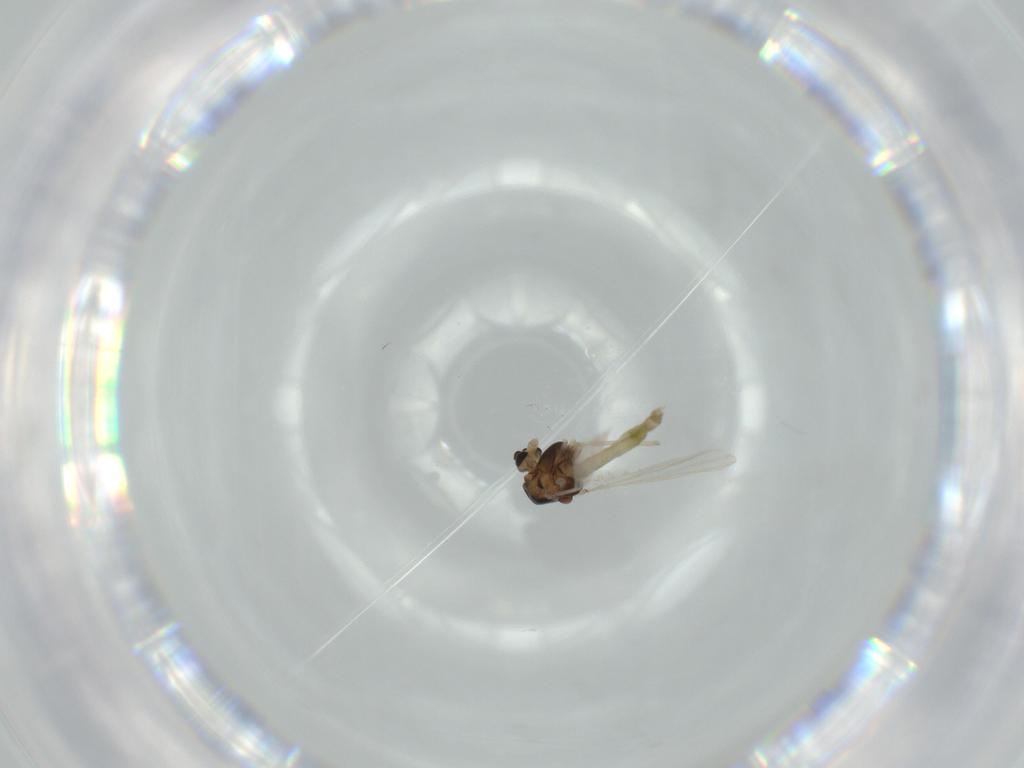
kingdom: Animalia
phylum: Arthropoda
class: Insecta
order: Diptera
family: Chironomidae
